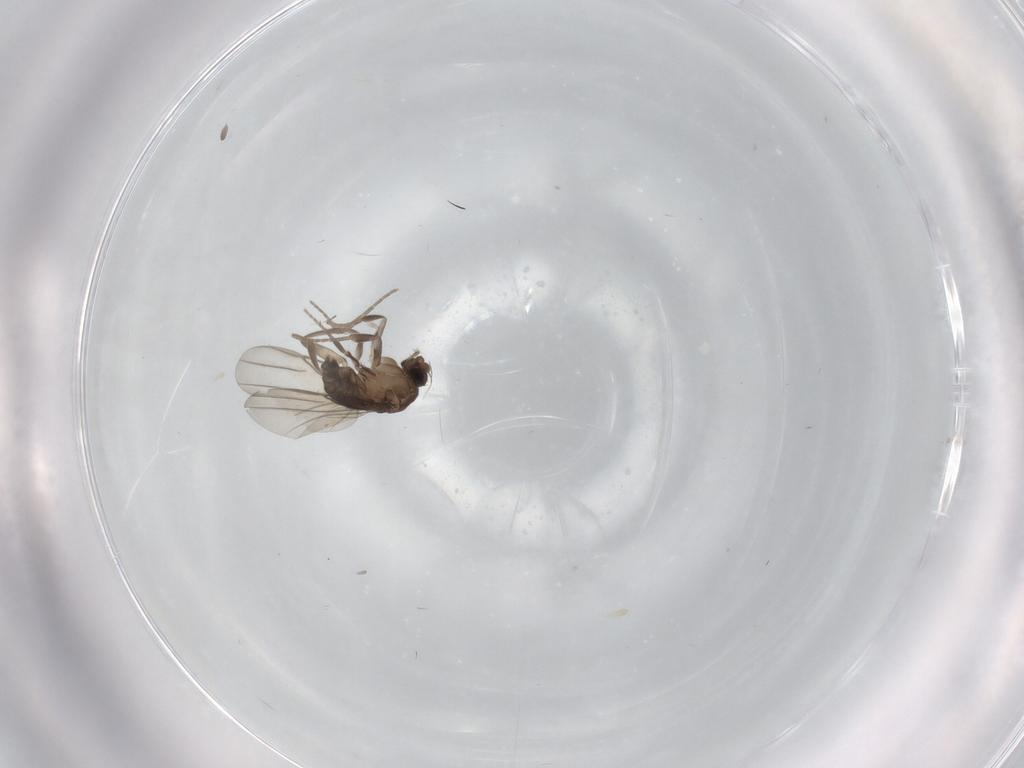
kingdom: Animalia
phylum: Arthropoda
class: Insecta
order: Diptera
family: Phoridae
